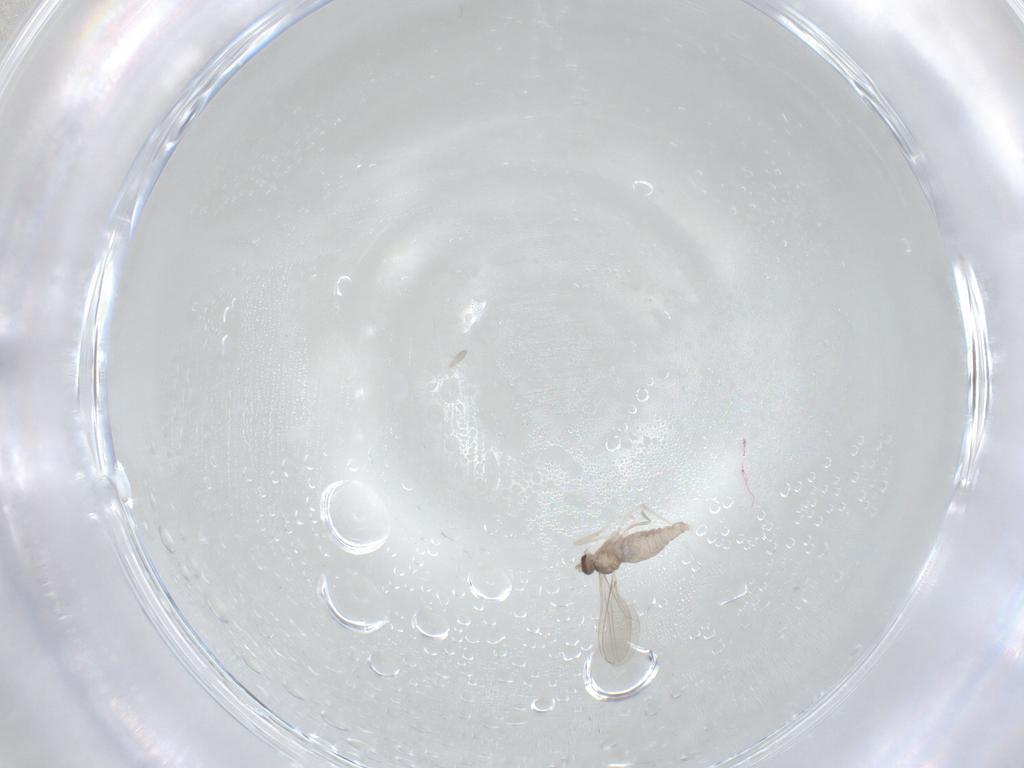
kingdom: Animalia
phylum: Arthropoda
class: Insecta
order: Diptera
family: Cecidomyiidae
